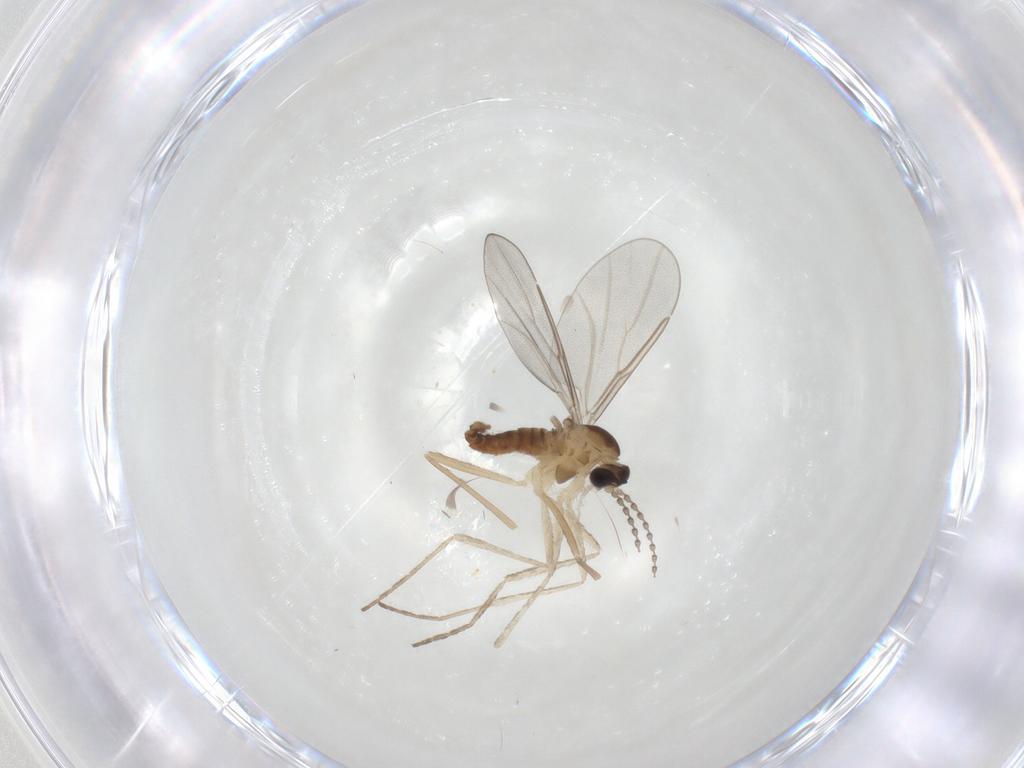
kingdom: Animalia
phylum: Arthropoda
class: Insecta
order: Diptera
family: Cecidomyiidae
